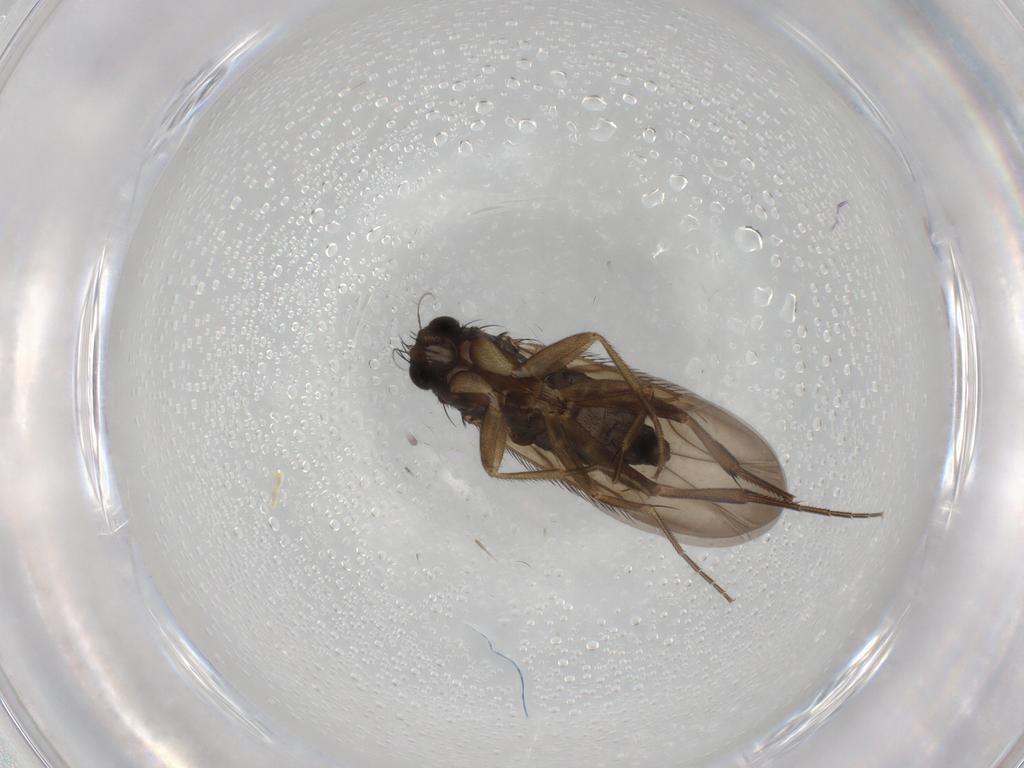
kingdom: Animalia
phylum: Arthropoda
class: Insecta
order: Diptera
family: Phoridae
